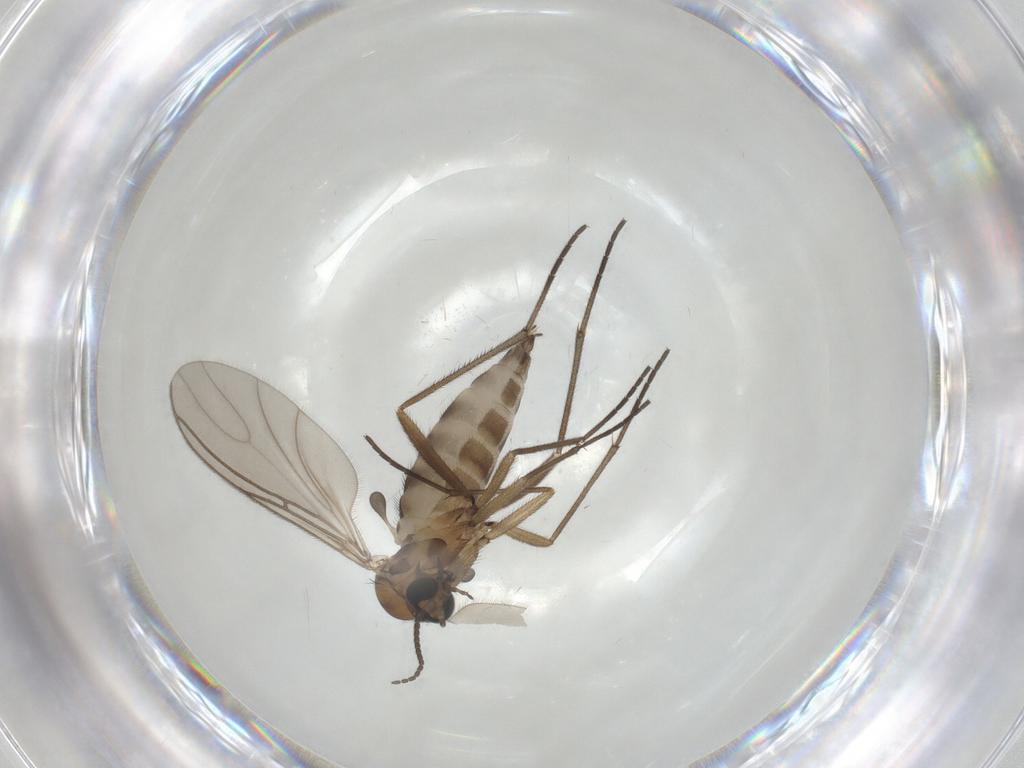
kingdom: Animalia
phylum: Arthropoda
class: Insecta
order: Diptera
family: Sciaridae
